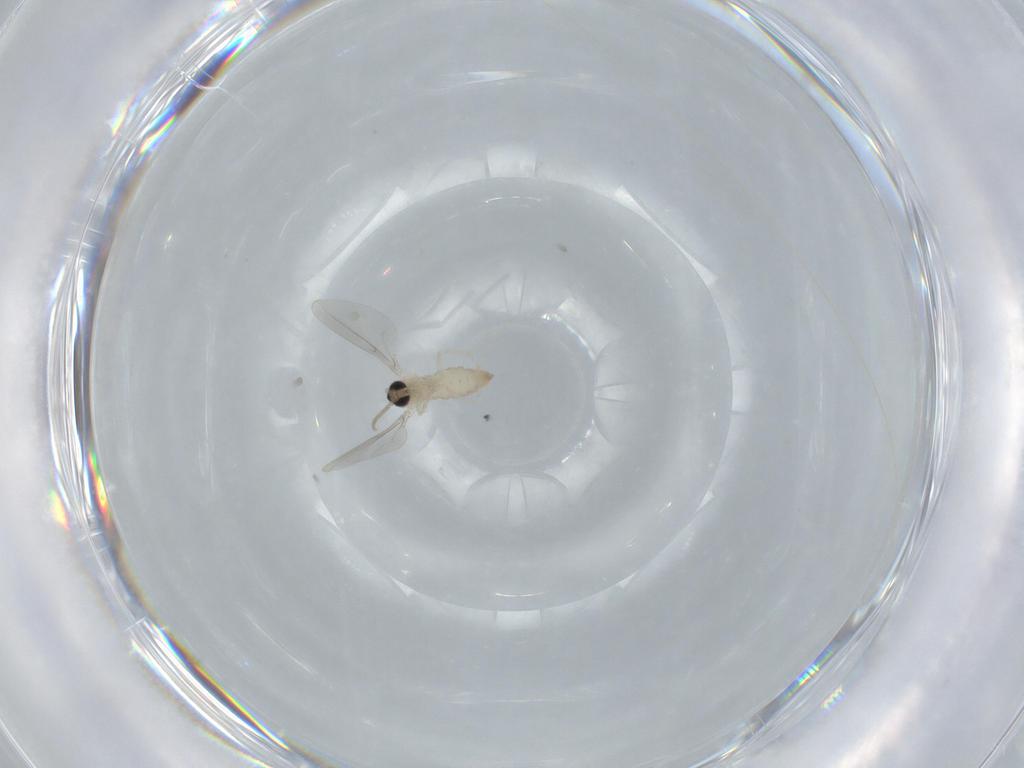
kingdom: Animalia
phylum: Arthropoda
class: Insecta
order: Diptera
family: Cecidomyiidae
